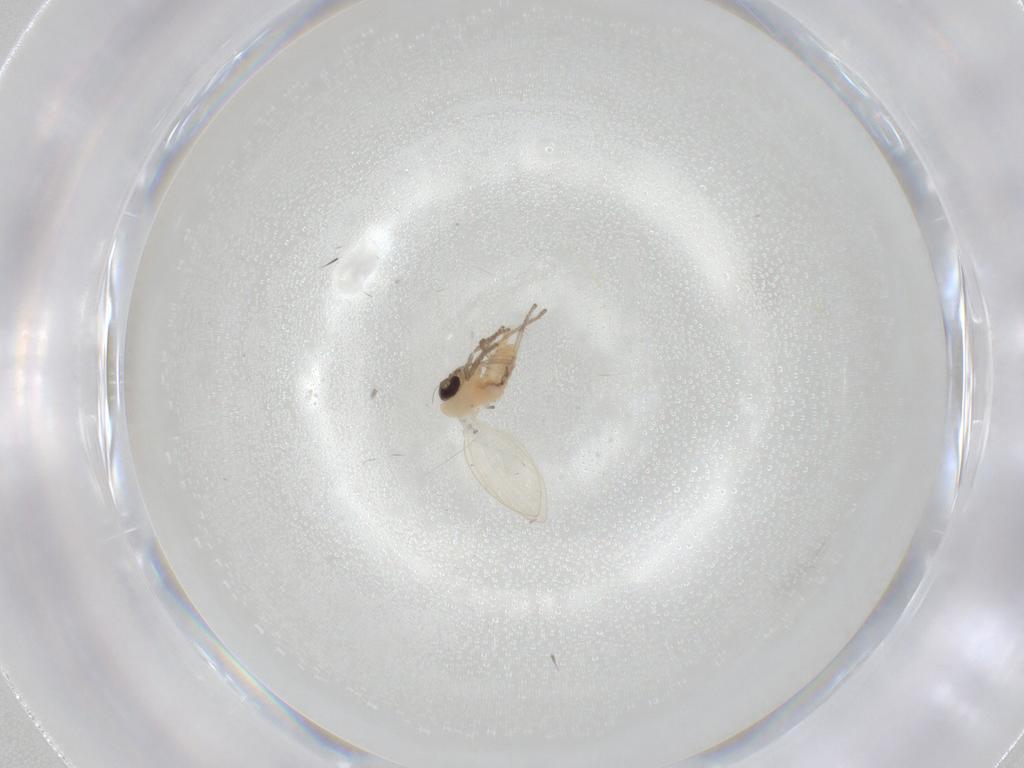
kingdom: Animalia
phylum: Arthropoda
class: Insecta
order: Diptera
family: Psychodidae
